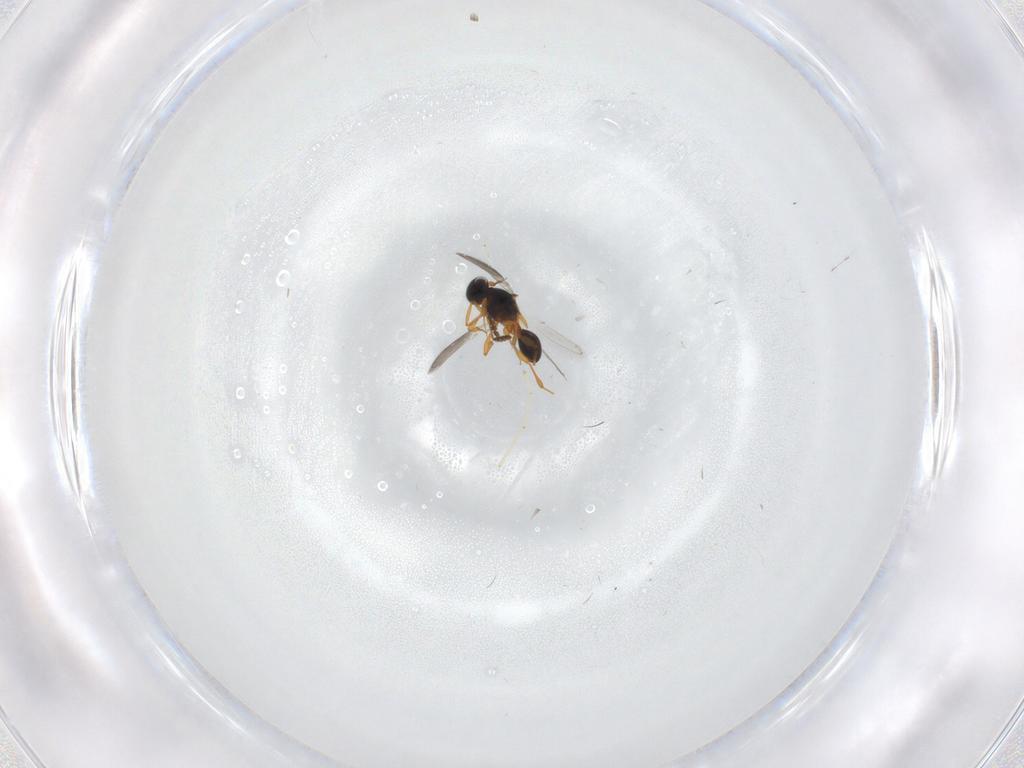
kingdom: Animalia
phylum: Arthropoda
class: Insecta
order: Hymenoptera
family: Platygastridae
